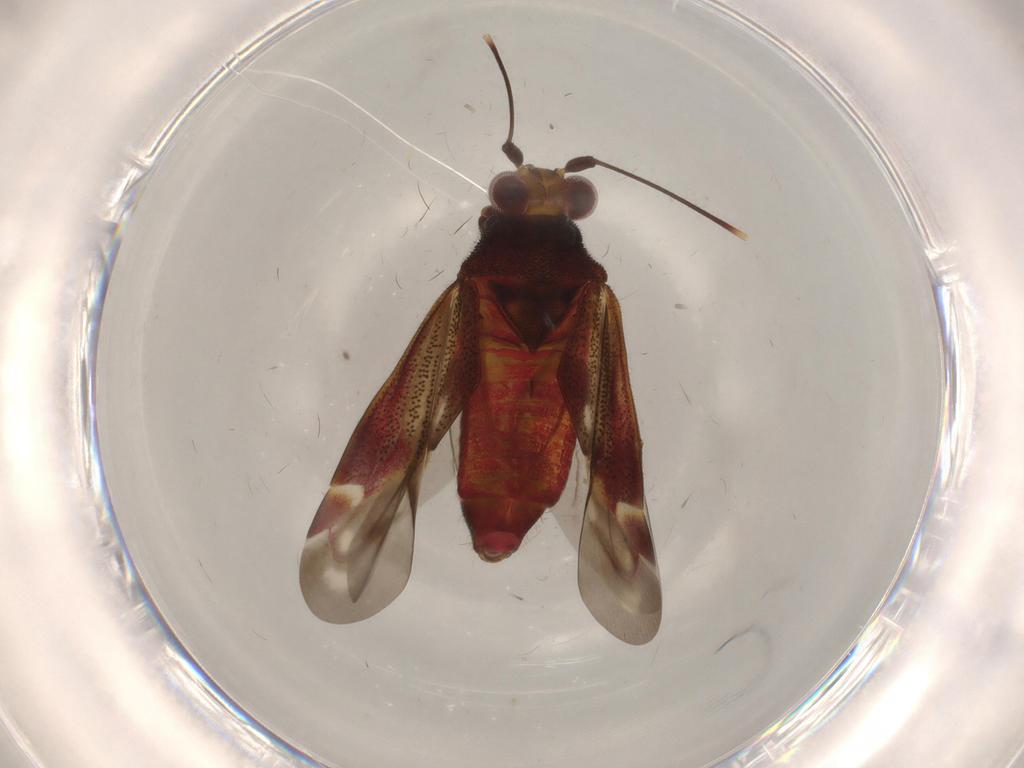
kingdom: Animalia
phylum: Arthropoda
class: Insecta
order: Hemiptera
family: Miridae
